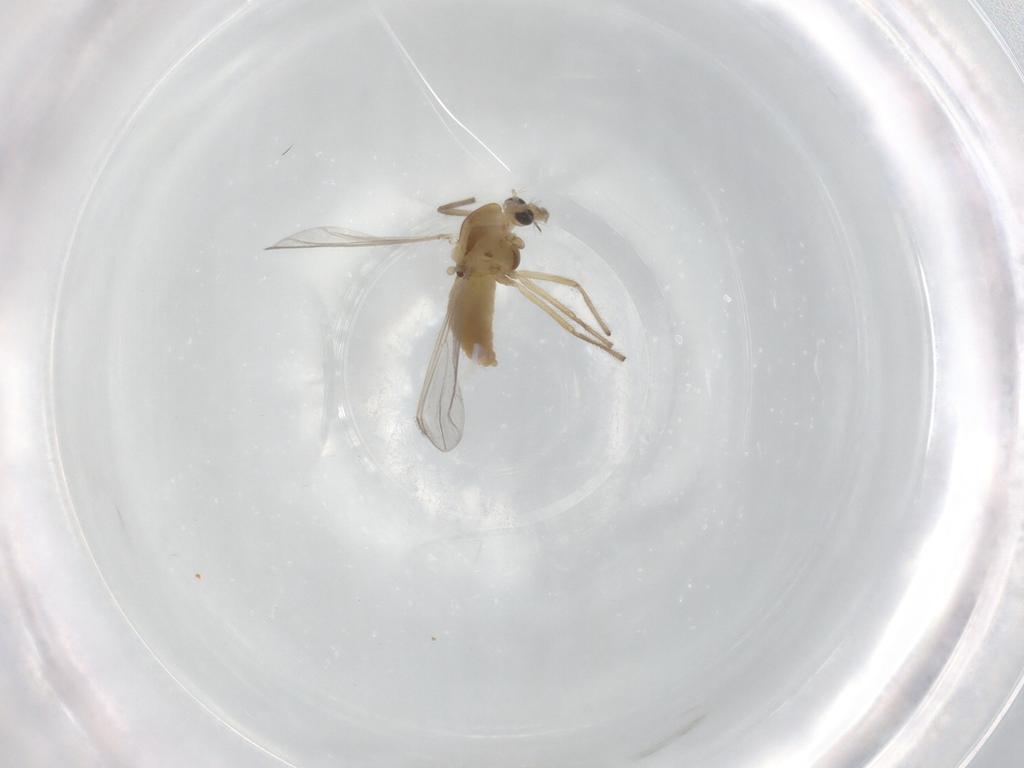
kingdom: Animalia
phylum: Arthropoda
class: Insecta
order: Diptera
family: Chironomidae
